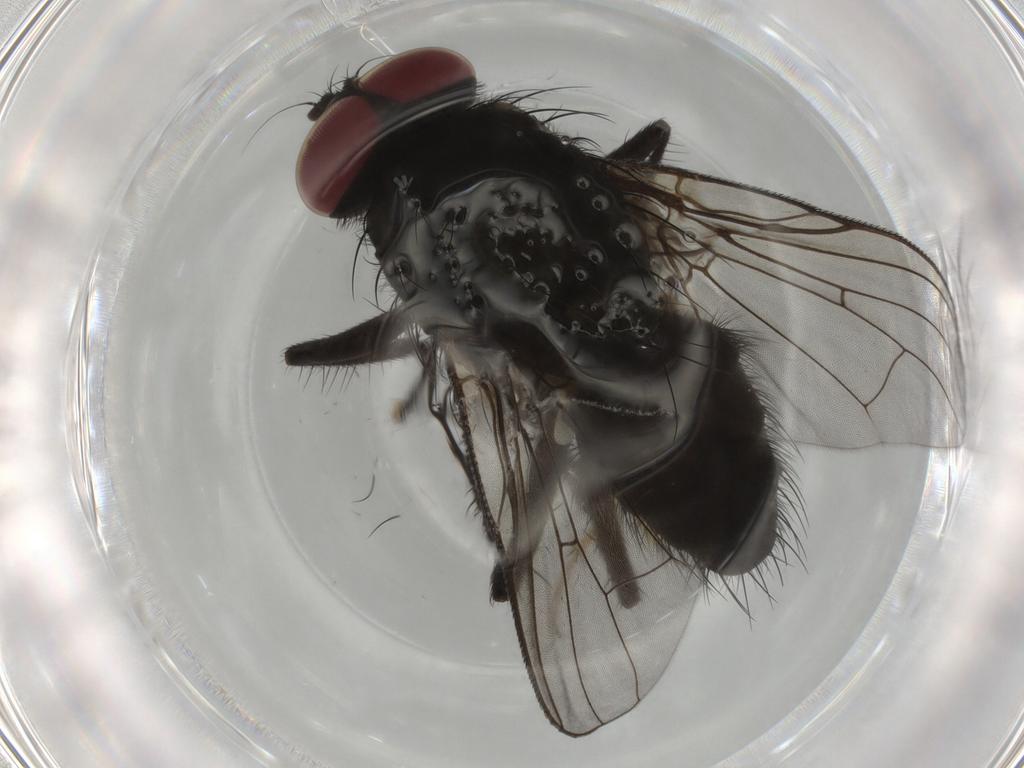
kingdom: Animalia
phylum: Arthropoda
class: Insecta
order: Diptera
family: Muscidae
